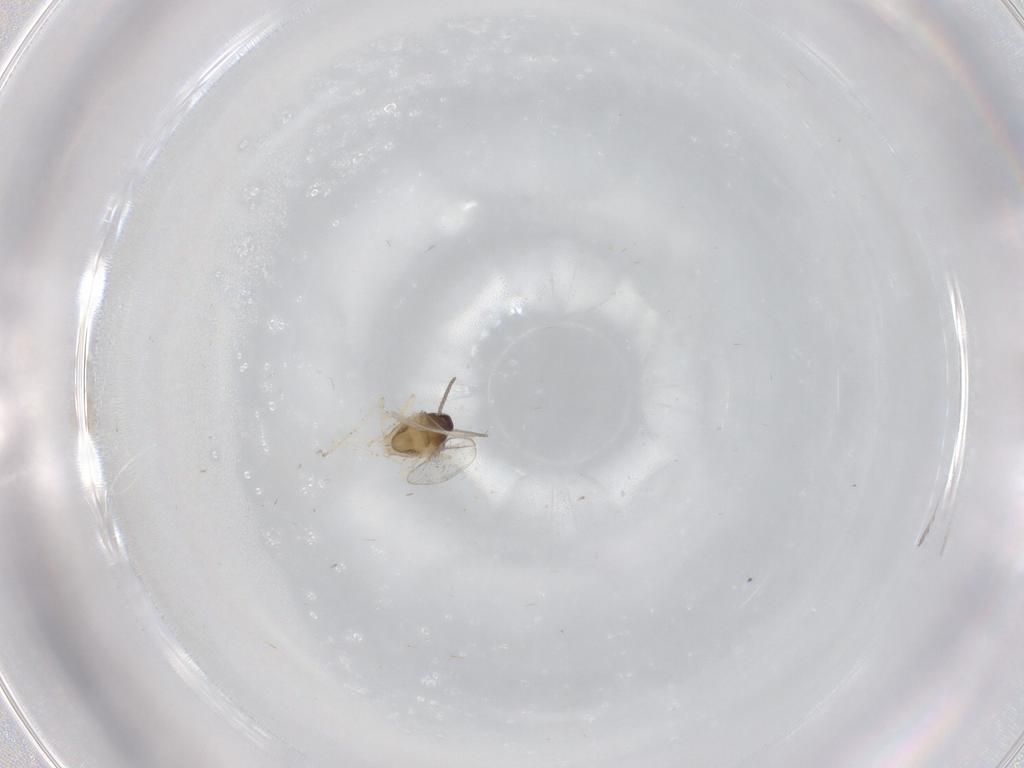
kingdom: Animalia
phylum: Arthropoda
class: Insecta
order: Diptera
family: Cecidomyiidae
